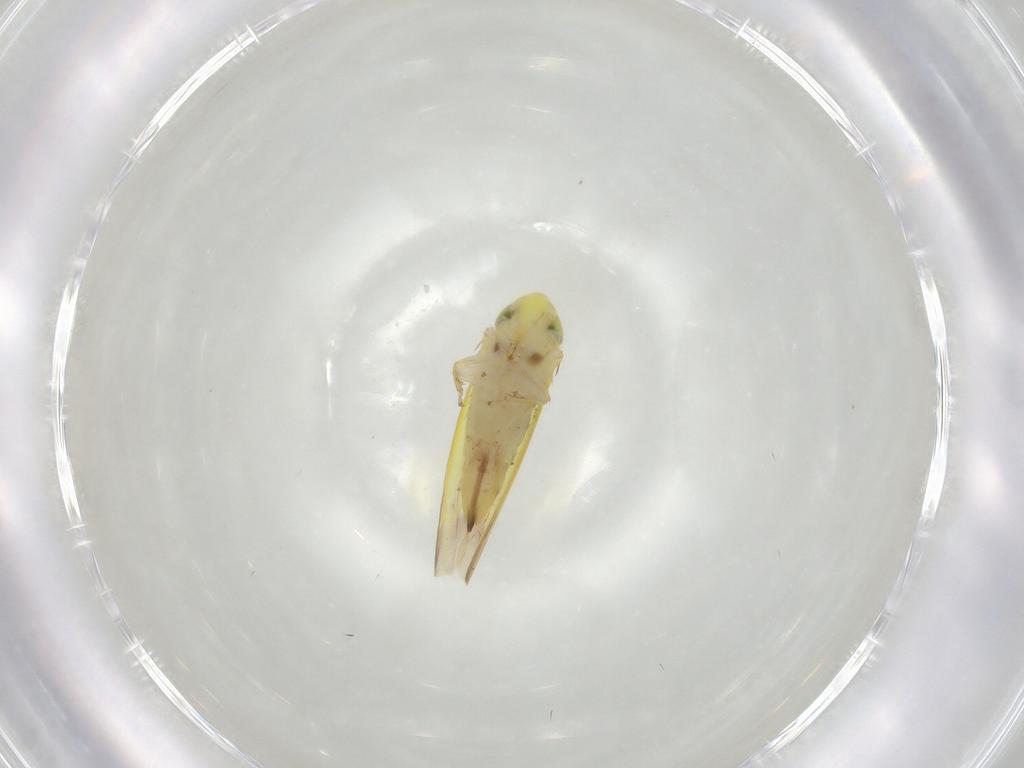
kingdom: Animalia
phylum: Arthropoda
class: Insecta
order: Hemiptera
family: Cicadellidae
